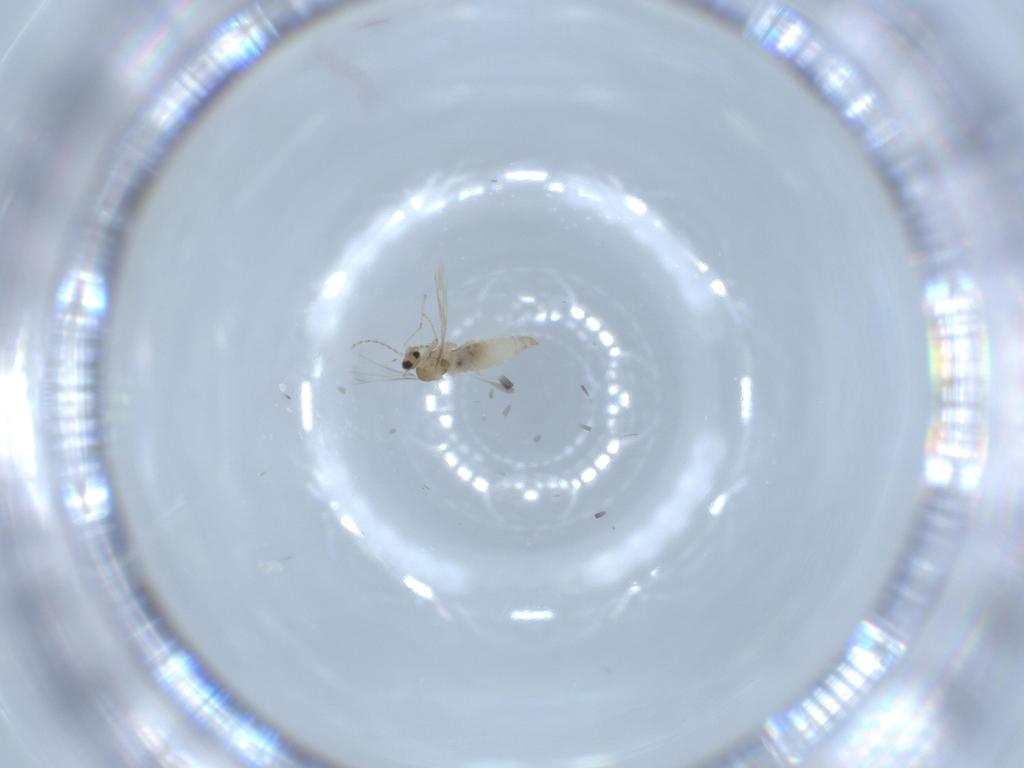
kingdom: Animalia
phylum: Arthropoda
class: Insecta
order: Diptera
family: Cecidomyiidae
